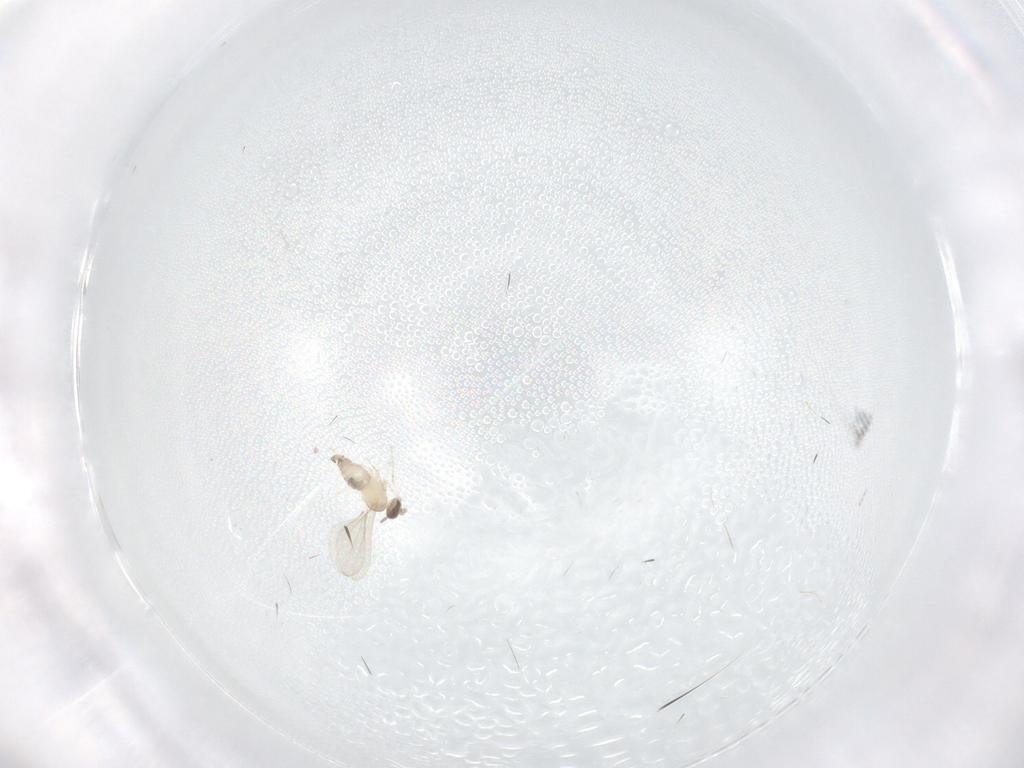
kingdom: Animalia
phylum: Arthropoda
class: Insecta
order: Diptera
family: Cecidomyiidae
